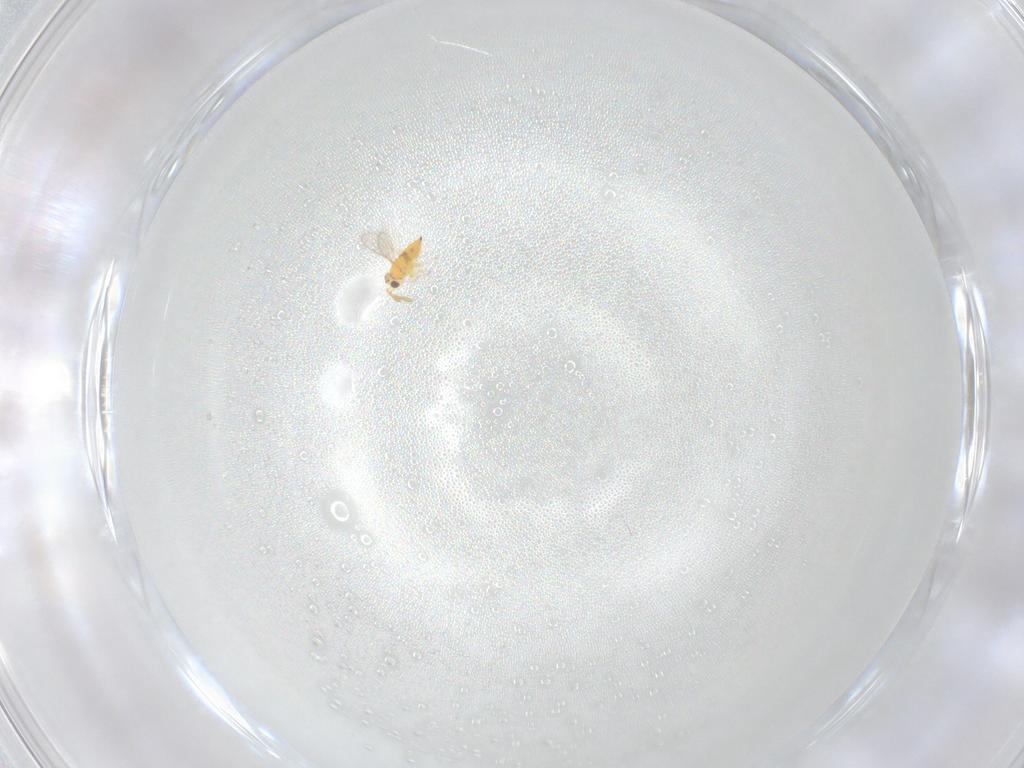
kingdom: Animalia
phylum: Arthropoda
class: Insecta
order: Hymenoptera
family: Aphelinidae
